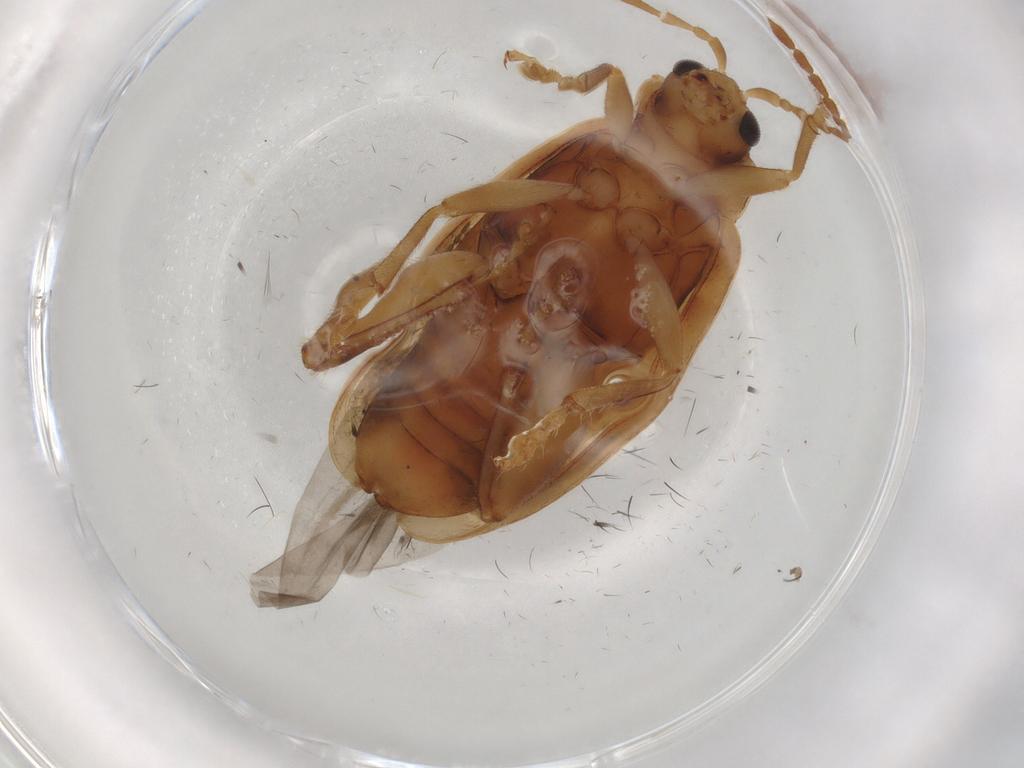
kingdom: Animalia
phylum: Arthropoda
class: Insecta
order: Coleoptera
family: Chrysomelidae
